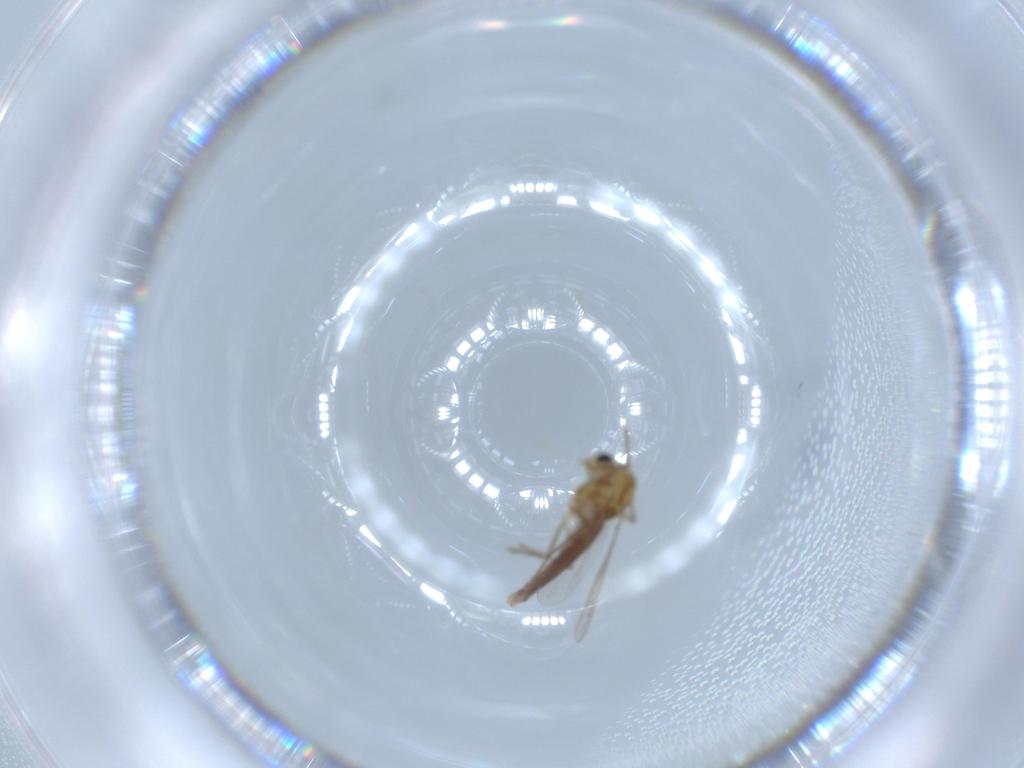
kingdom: Animalia
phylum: Arthropoda
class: Insecta
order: Diptera
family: Chironomidae
